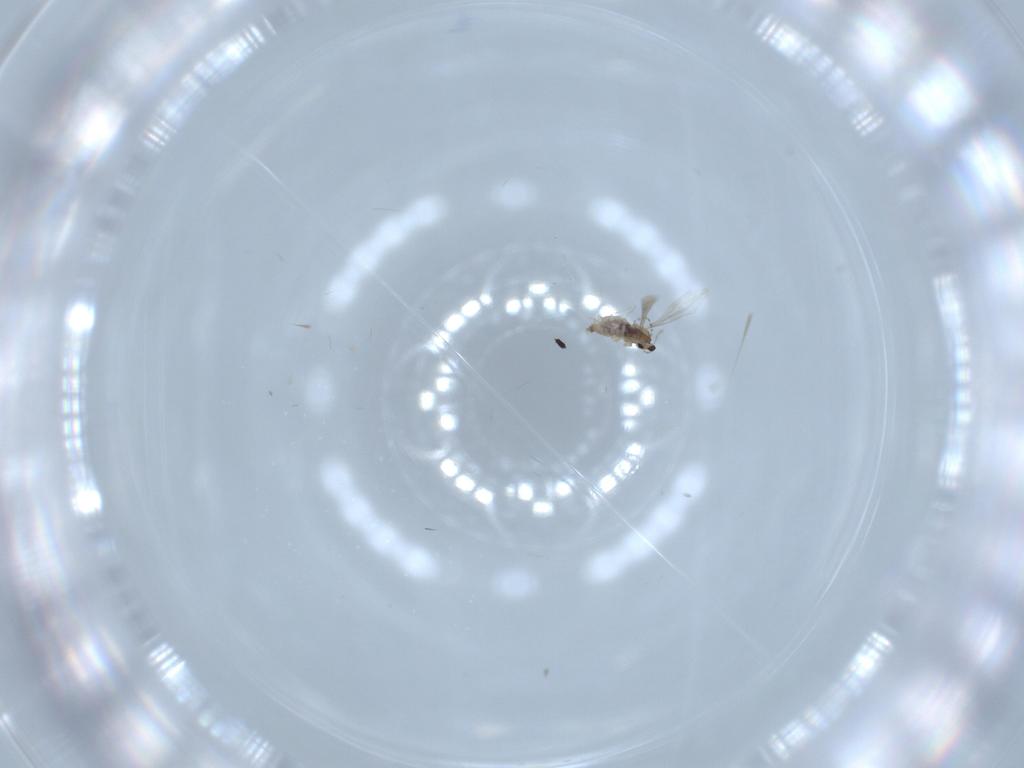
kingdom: Animalia
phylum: Arthropoda
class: Insecta
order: Diptera
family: Cecidomyiidae
